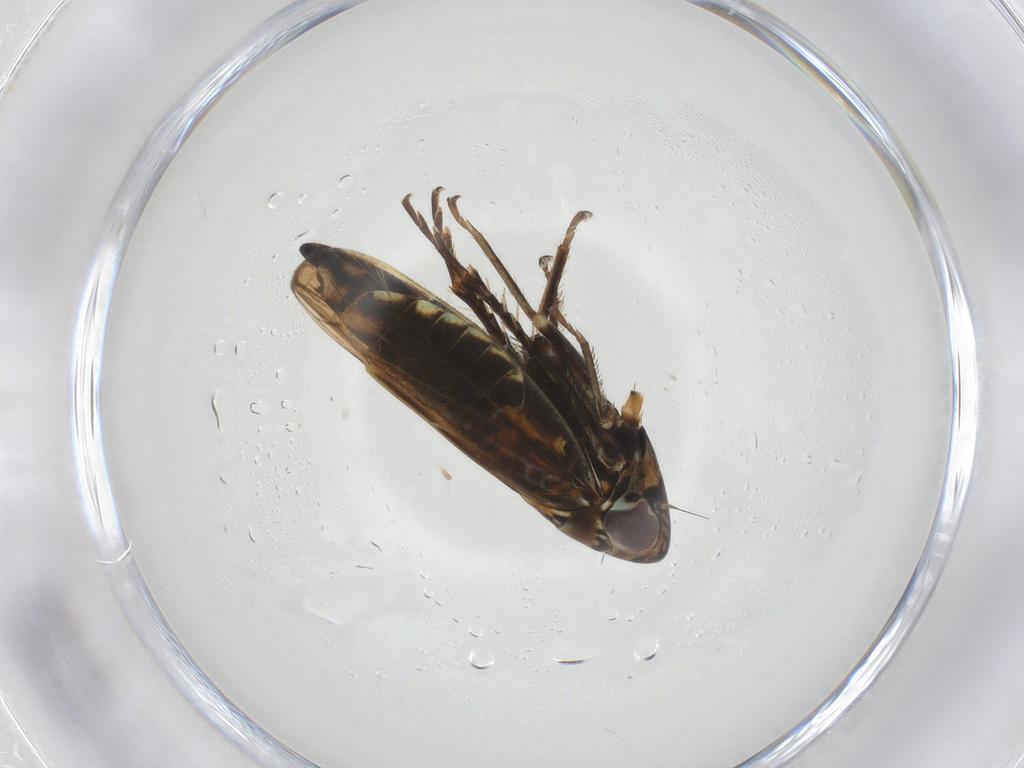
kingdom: Animalia
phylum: Arthropoda
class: Insecta
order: Hemiptera
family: Cicadellidae
